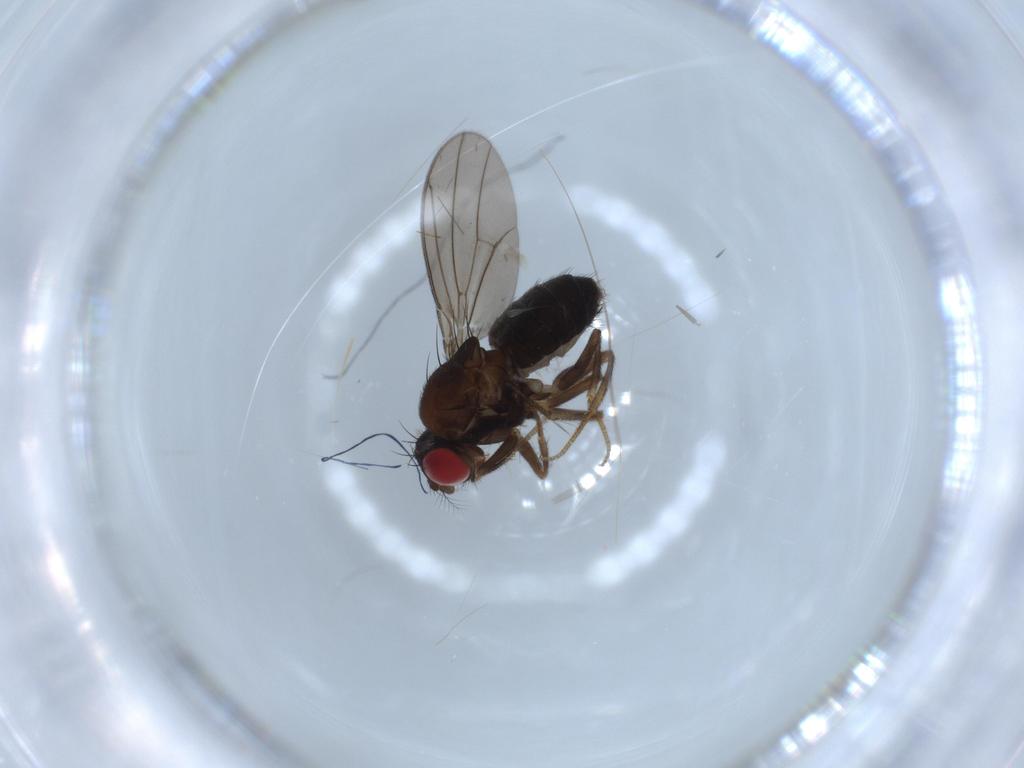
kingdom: Animalia
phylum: Arthropoda
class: Insecta
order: Diptera
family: Drosophilidae
